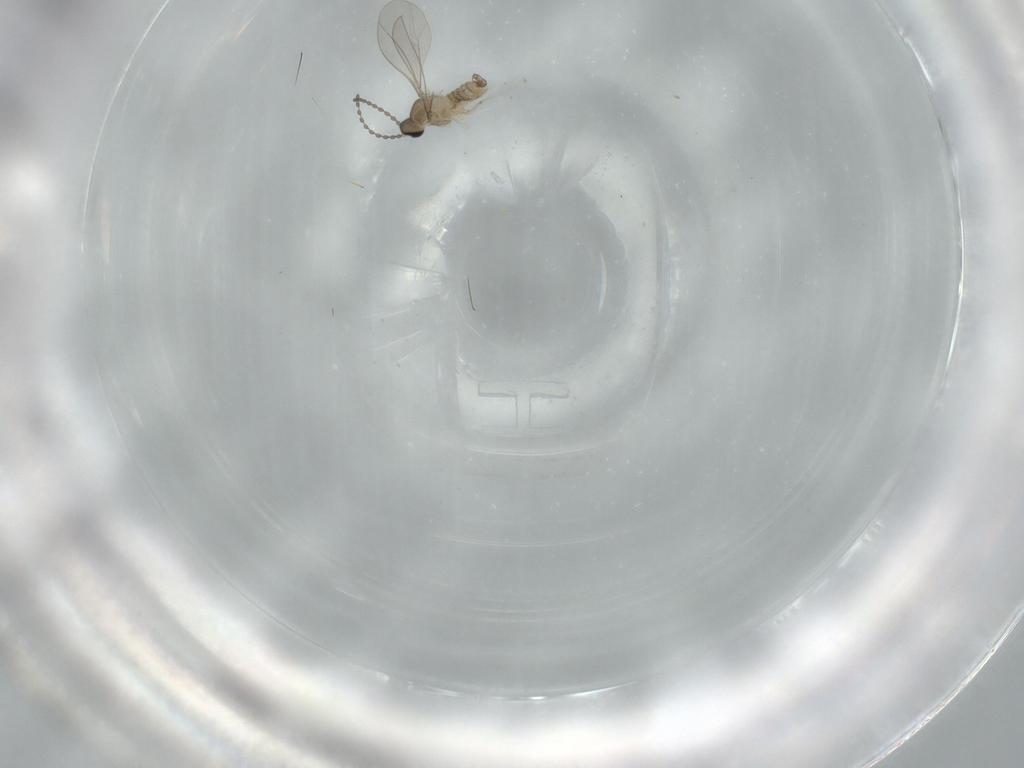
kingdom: Animalia
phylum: Arthropoda
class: Insecta
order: Diptera
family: Cecidomyiidae
